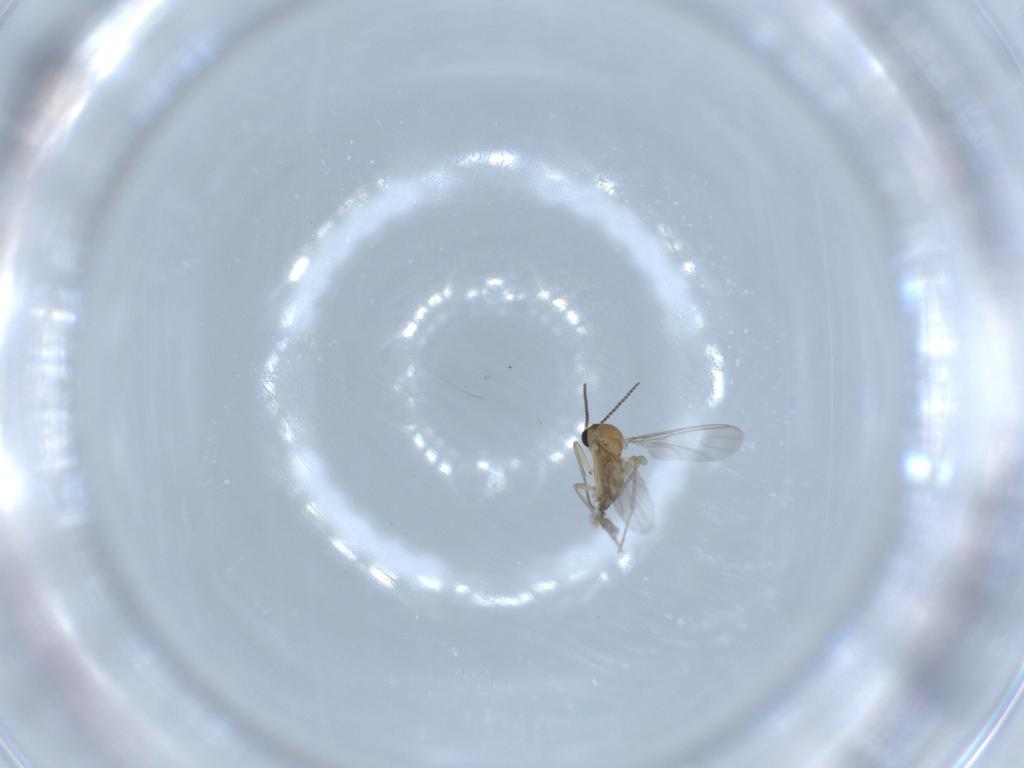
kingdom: Animalia
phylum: Arthropoda
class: Insecta
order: Diptera
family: Sciaridae
